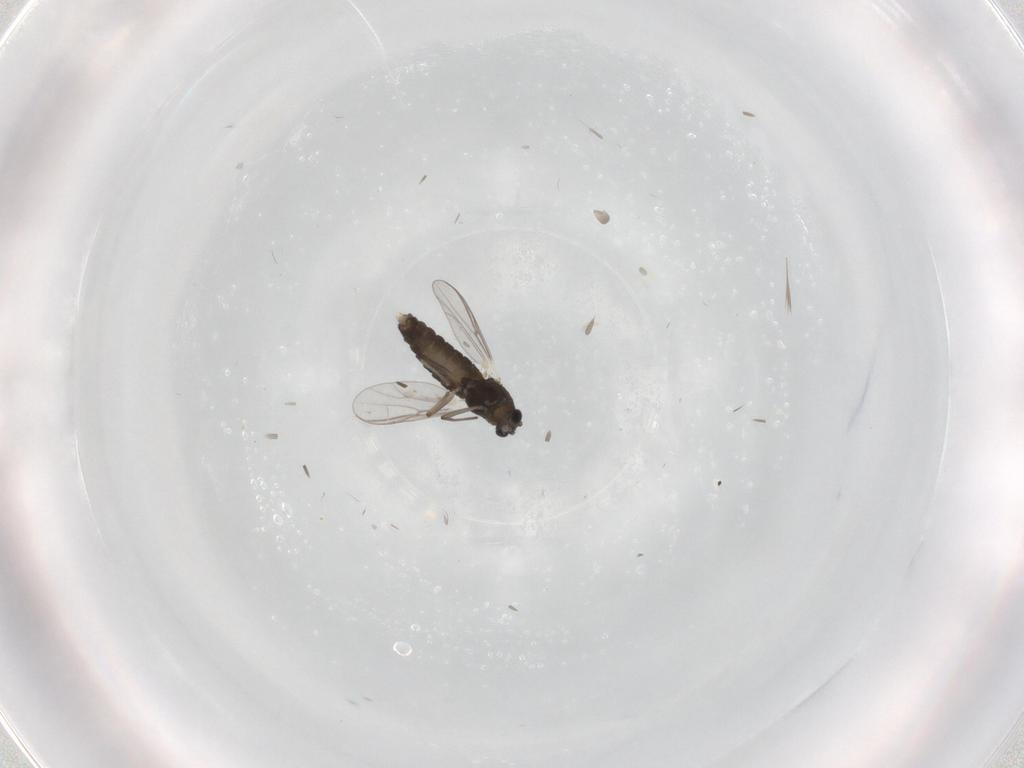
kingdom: Animalia
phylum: Arthropoda
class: Insecta
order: Diptera
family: Chironomidae
